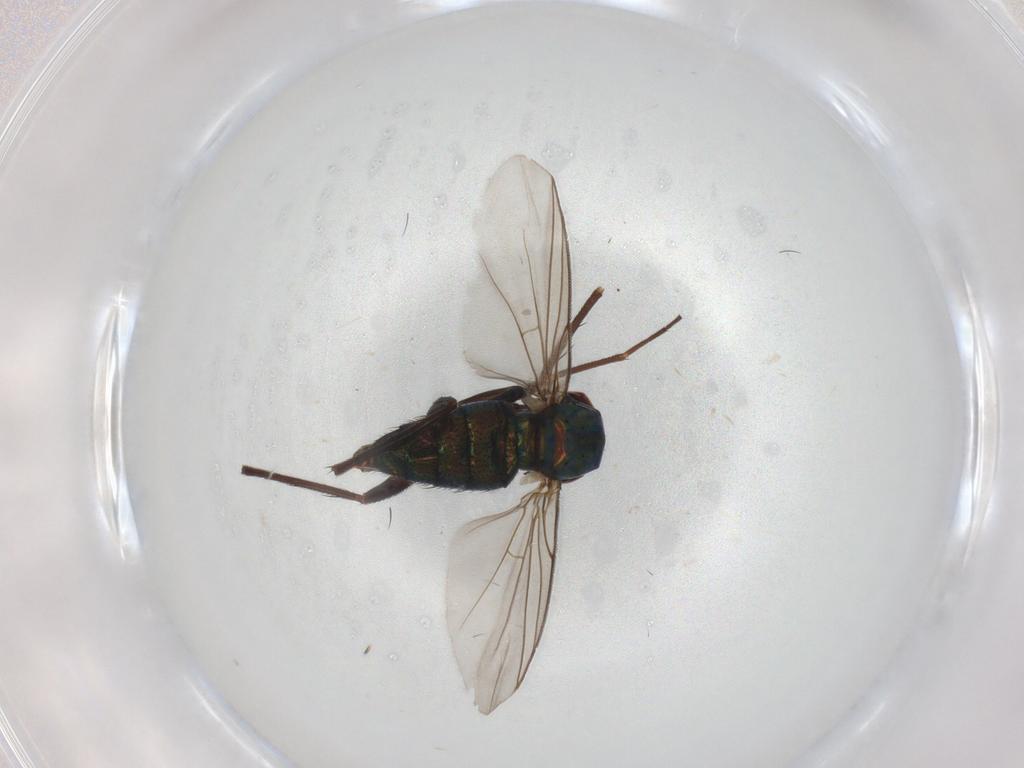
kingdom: Animalia
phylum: Arthropoda
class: Insecta
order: Diptera
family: Dolichopodidae
